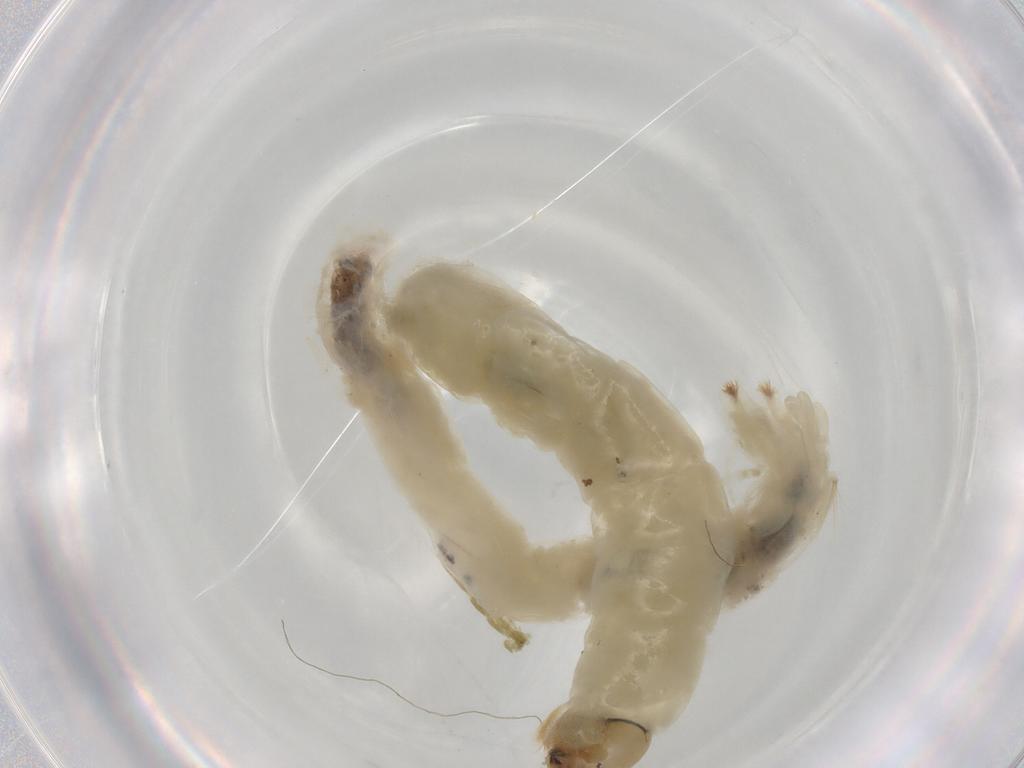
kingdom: Animalia
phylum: Arthropoda
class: Insecta
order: Diptera
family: Chironomidae
